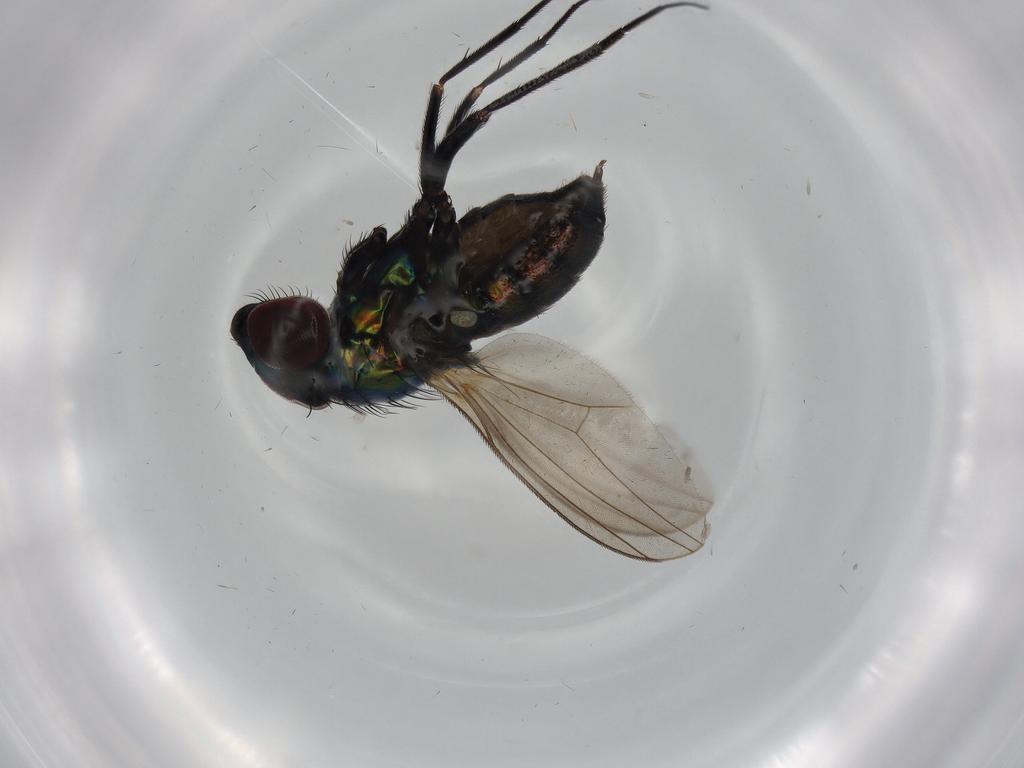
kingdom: Animalia
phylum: Arthropoda
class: Insecta
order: Diptera
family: Dolichopodidae
